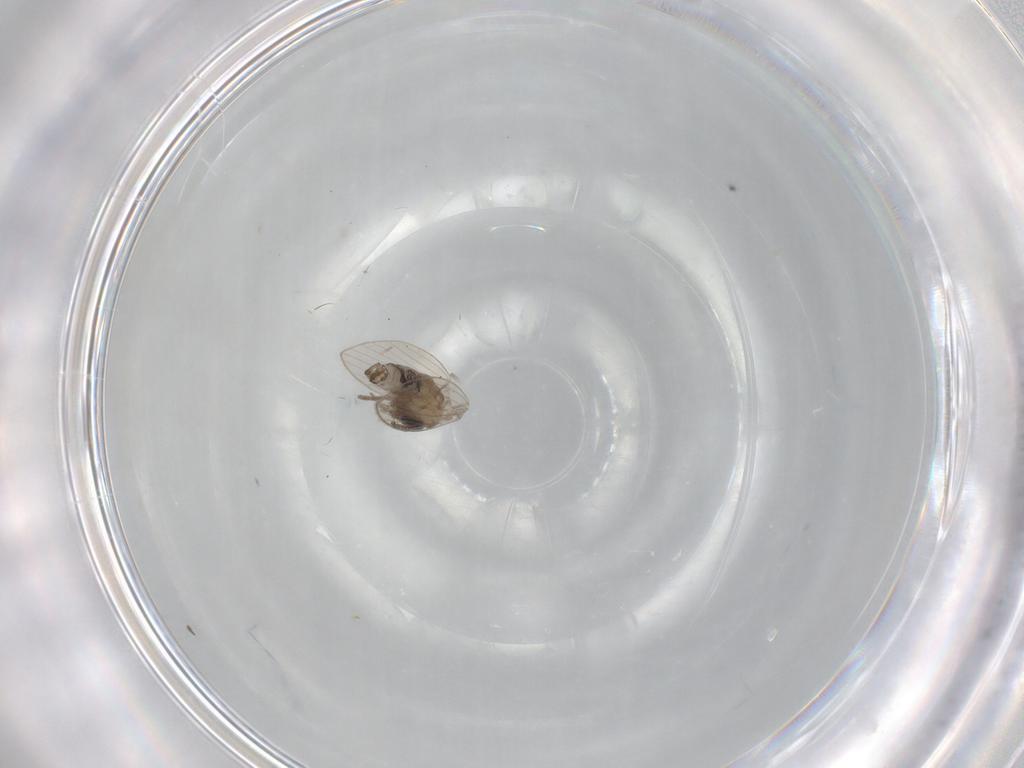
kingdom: Animalia
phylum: Arthropoda
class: Insecta
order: Diptera
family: Psychodidae
